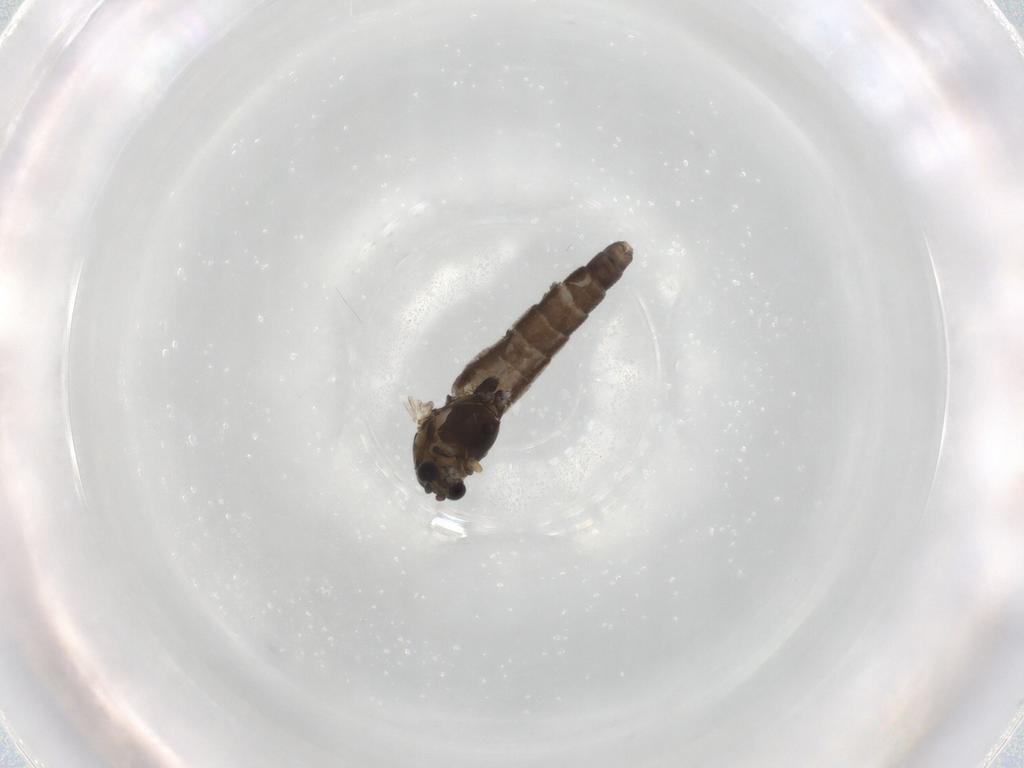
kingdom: Animalia
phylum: Arthropoda
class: Insecta
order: Diptera
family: Chironomidae
